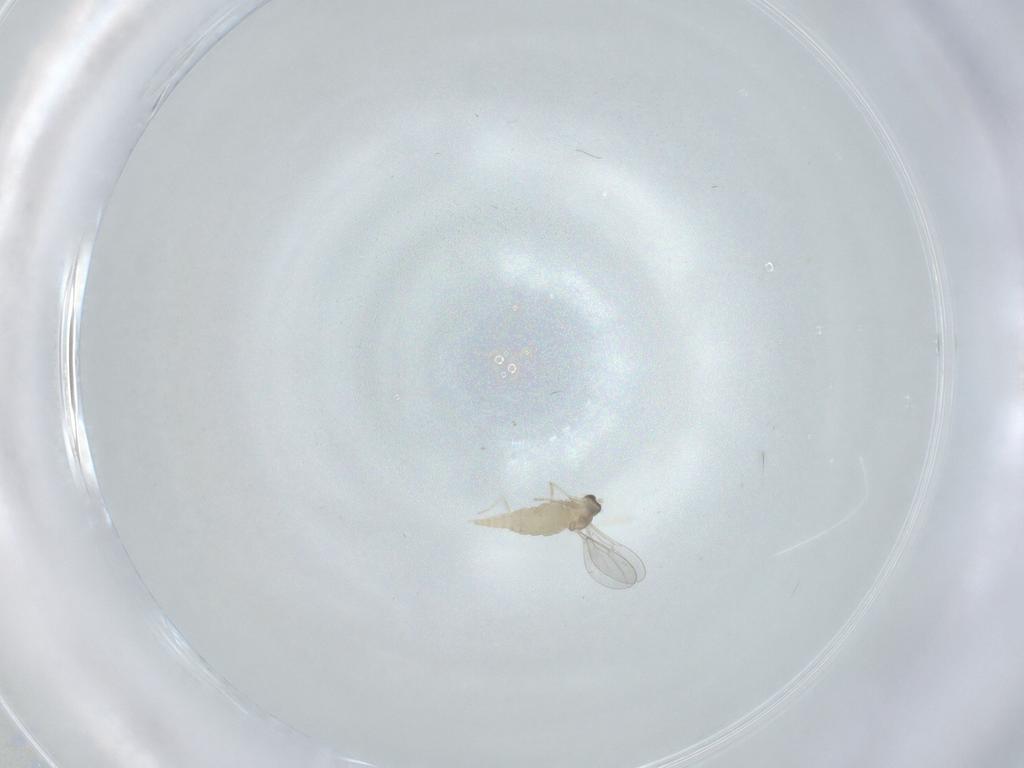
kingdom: Animalia
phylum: Arthropoda
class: Insecta
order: Diptera
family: Cecidomyiidae
